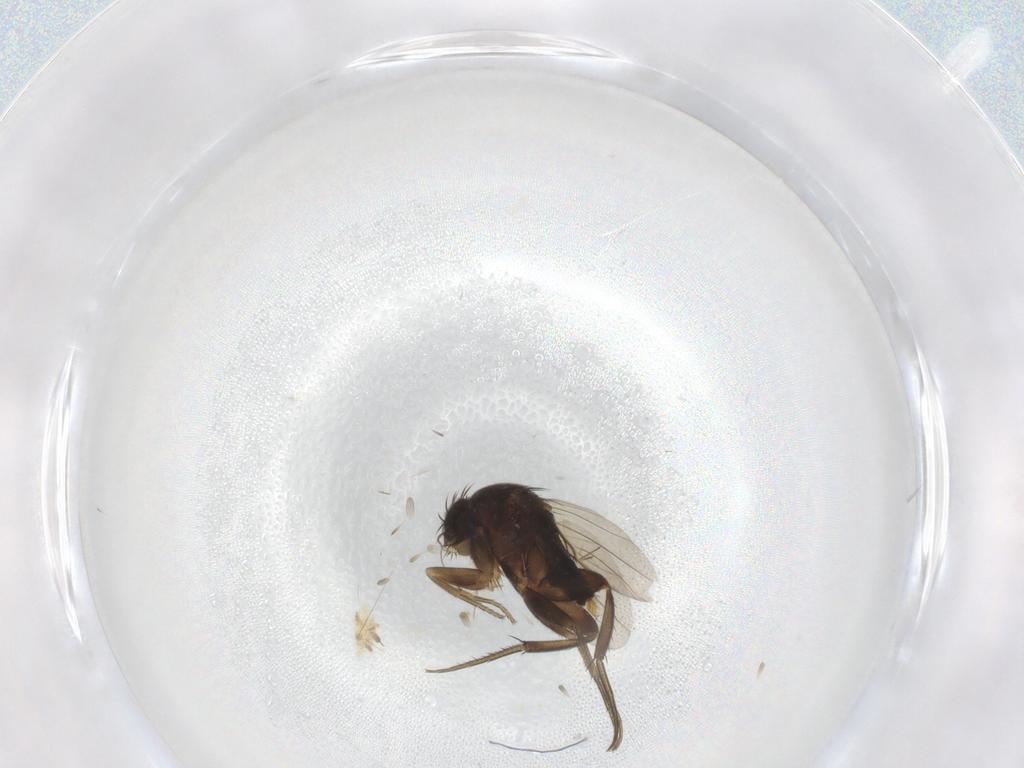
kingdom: Animalia
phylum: Arthropoda
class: Insecta
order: Diptera
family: Phoridae
